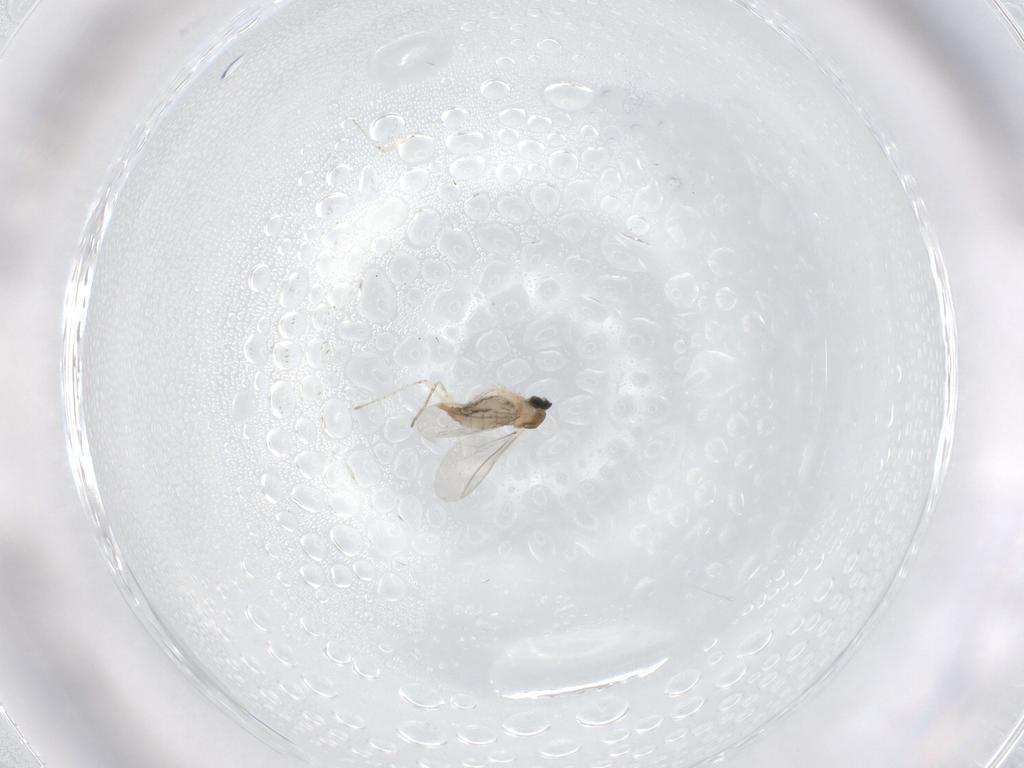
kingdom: Animalia
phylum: Arthropoda
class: Insecta
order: Diptera
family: Cecidomyiidae
